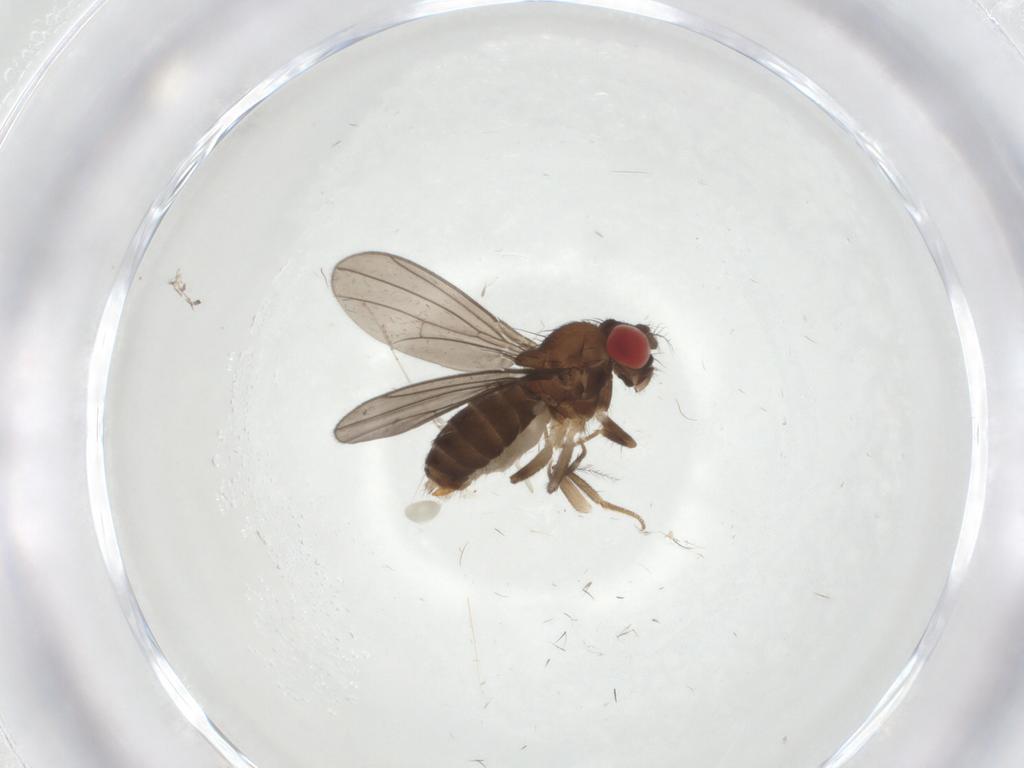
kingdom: Animalia
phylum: Arthropoda
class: Insecta
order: Diptera
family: Drosophilidae
